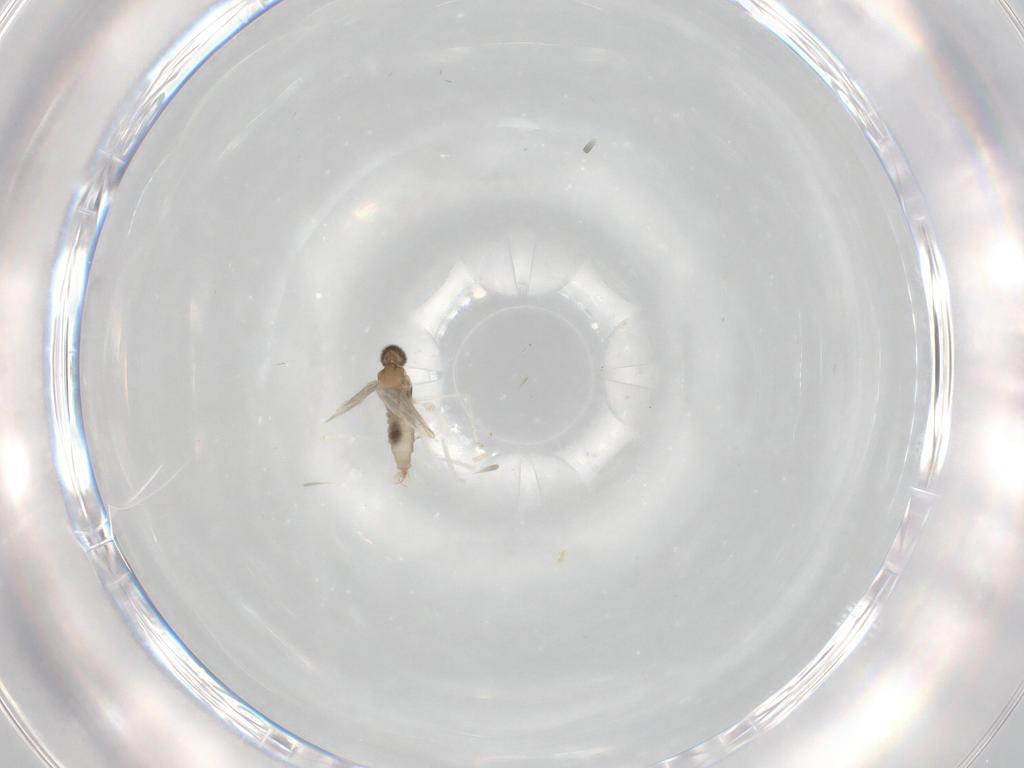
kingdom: Animalia
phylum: Arthropoda
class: Insecta
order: Diptera
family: Cecidomyiidae
